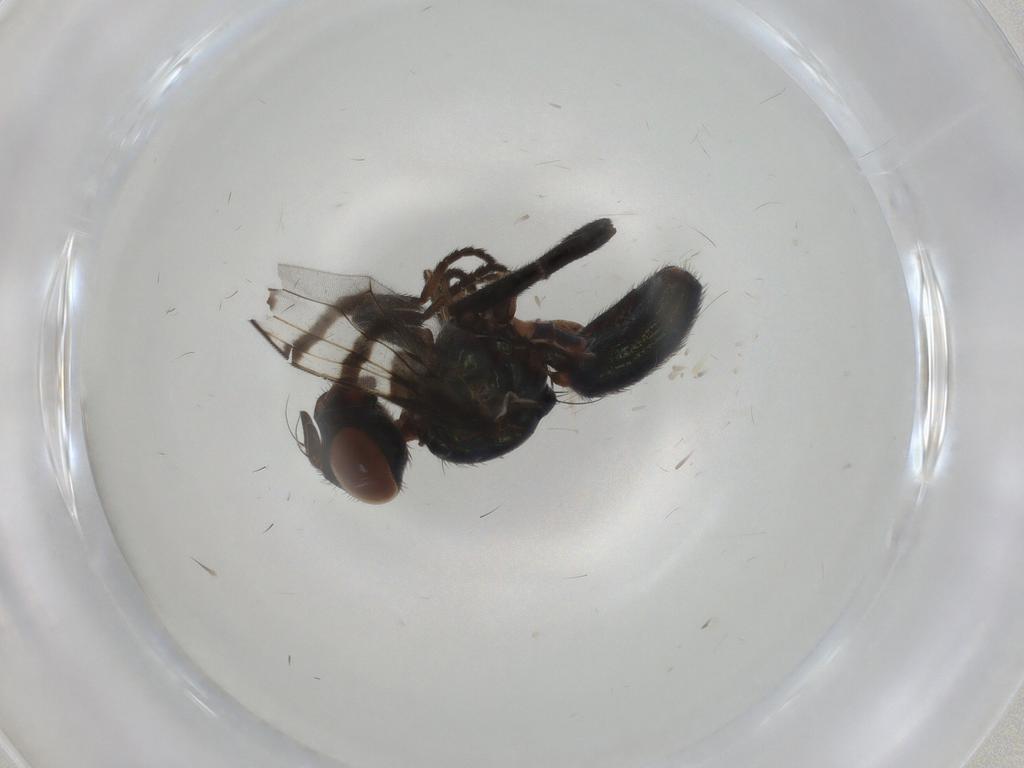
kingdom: Animalia
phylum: Arthropoda
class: Insecta
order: Diptera
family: Platystomatidae
